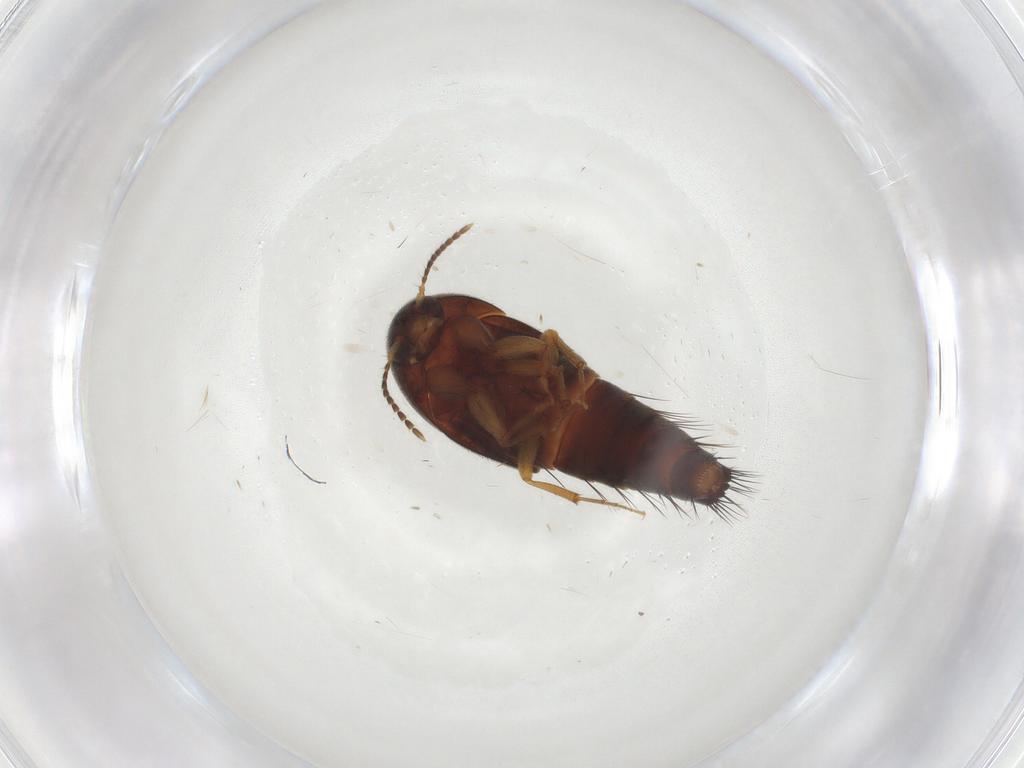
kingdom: Animalia
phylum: Arthropoda
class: Insecta
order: Coleoptera
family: Staphylinidae
